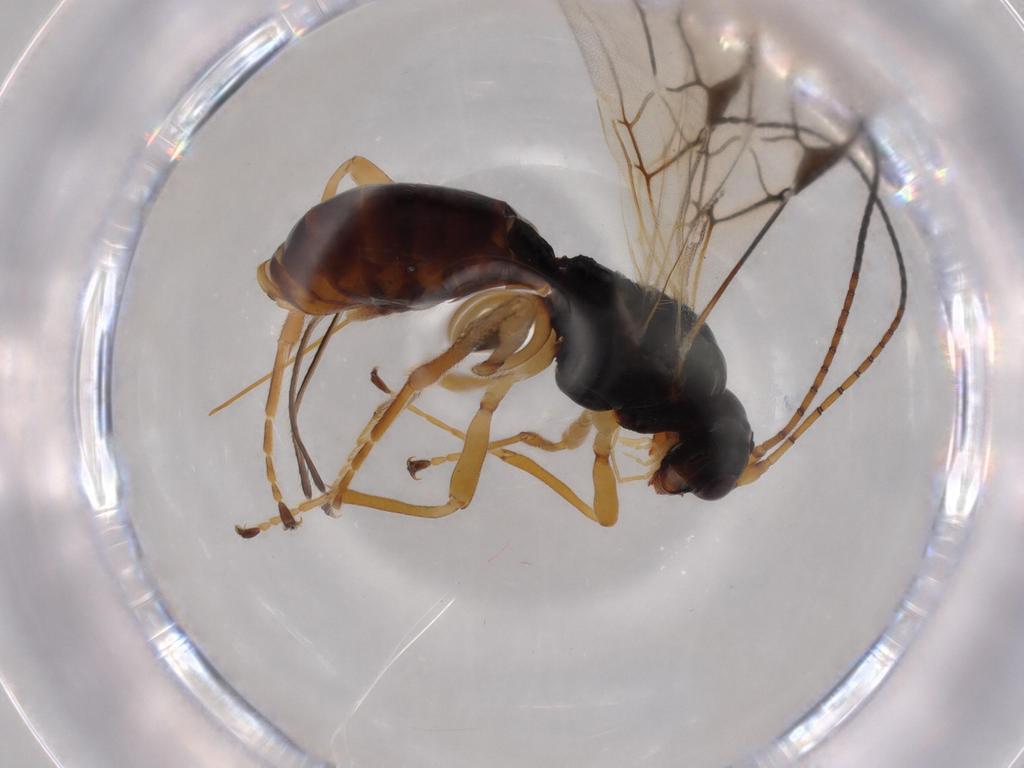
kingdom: Animalia
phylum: Arthropoda
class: Insecta
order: Hymenoptera
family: Braconidae
